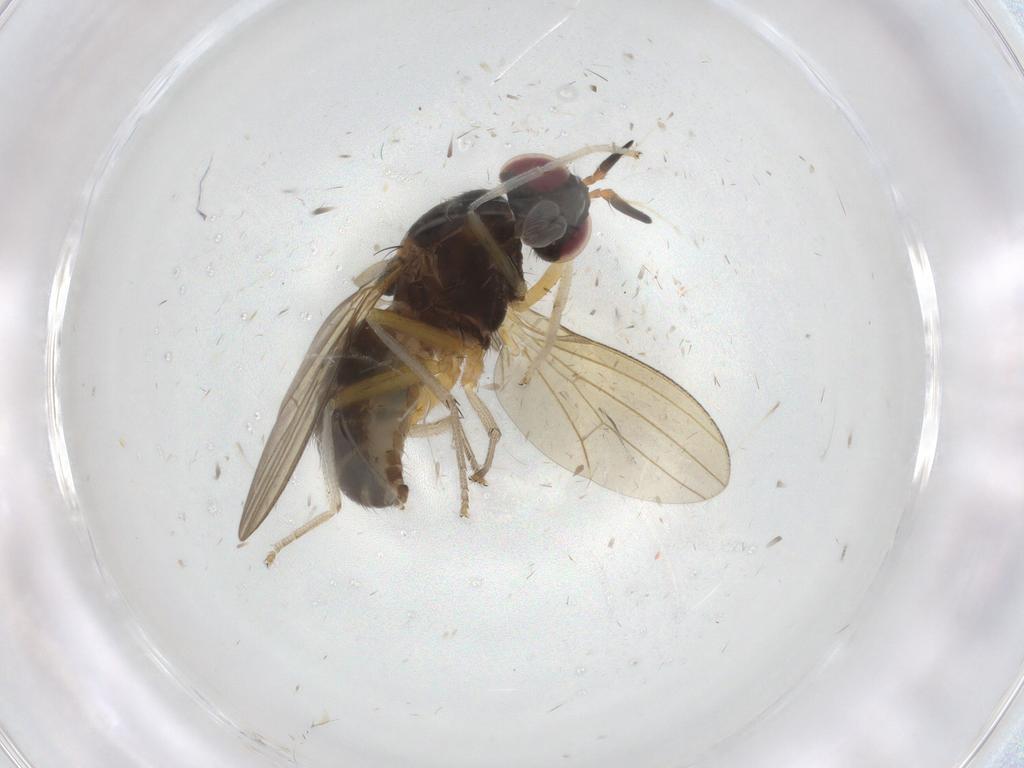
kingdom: Animalia
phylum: Arthropoda
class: Insecta
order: Diptera
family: Lauxaniidae
